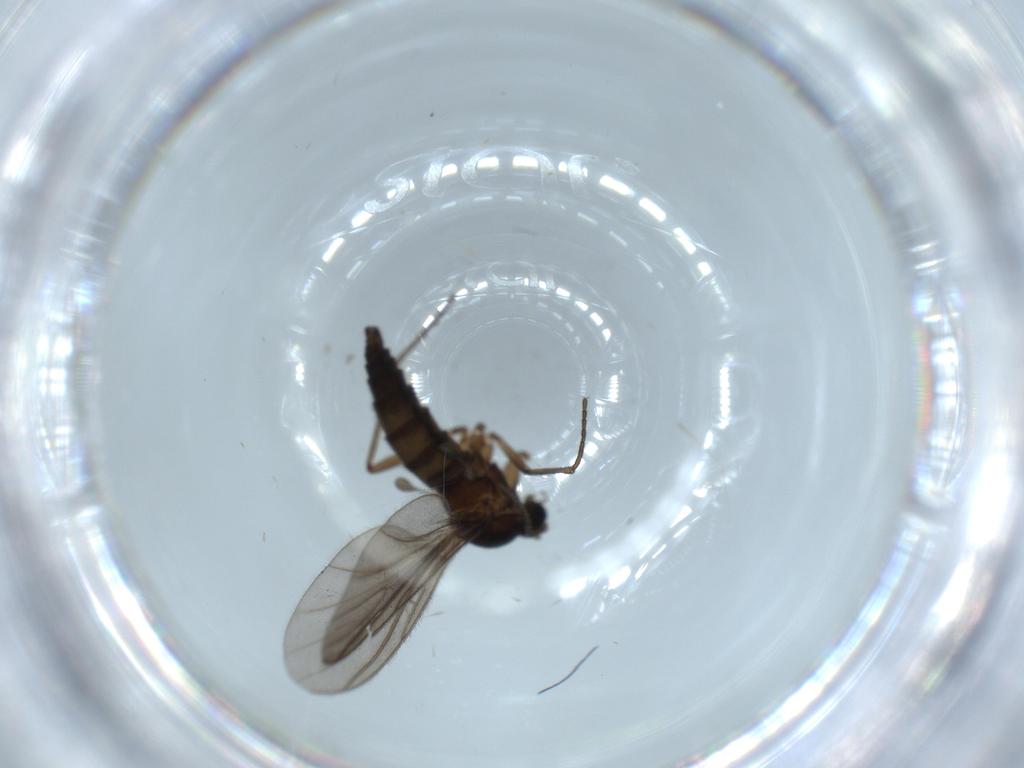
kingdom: Animalia
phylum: Arthropoda
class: Insecta
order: Diptera
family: Sciaridae
